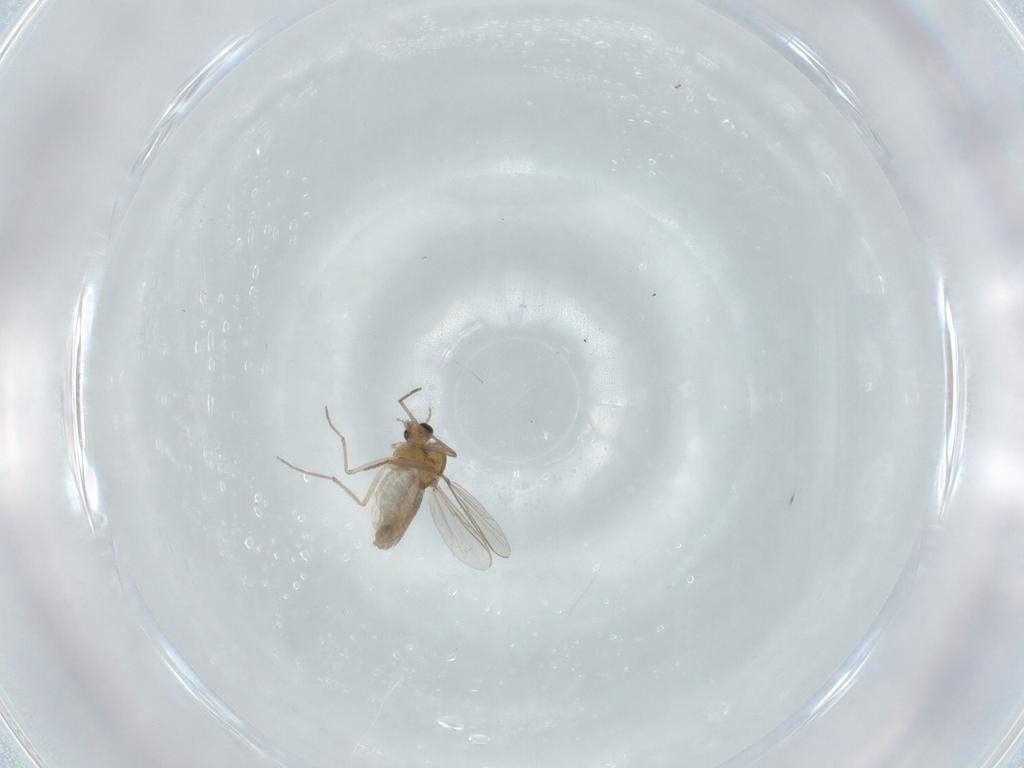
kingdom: Animalia
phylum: Arthropoda
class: Insecta
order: Diptera
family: Chironomidae
